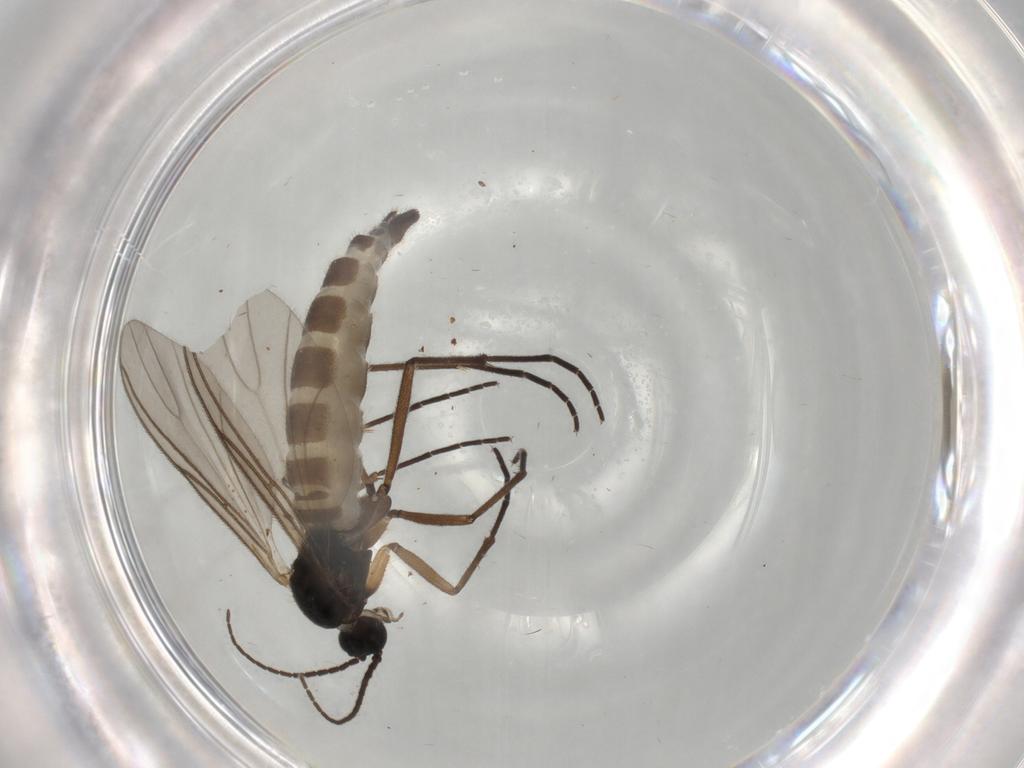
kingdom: Animalia
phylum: Arthropoda
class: Insecta
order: Diptera
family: Sciaridae
